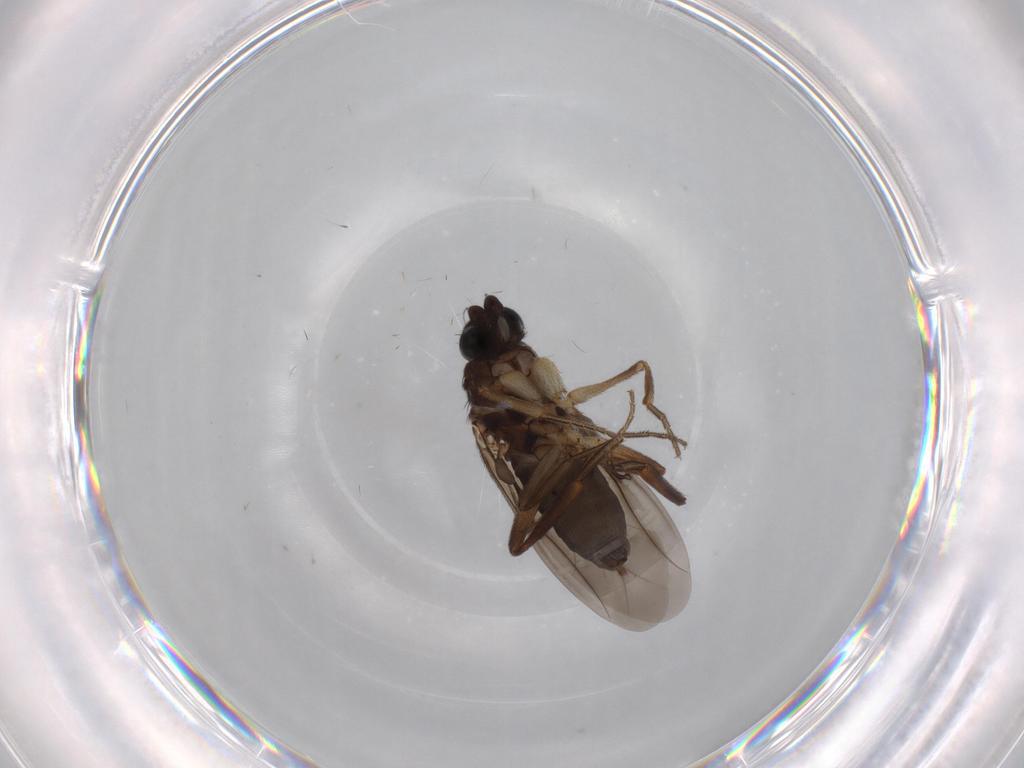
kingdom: Animalia
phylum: Arthropoda
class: Insecta
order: Diptera
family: Phoridae
